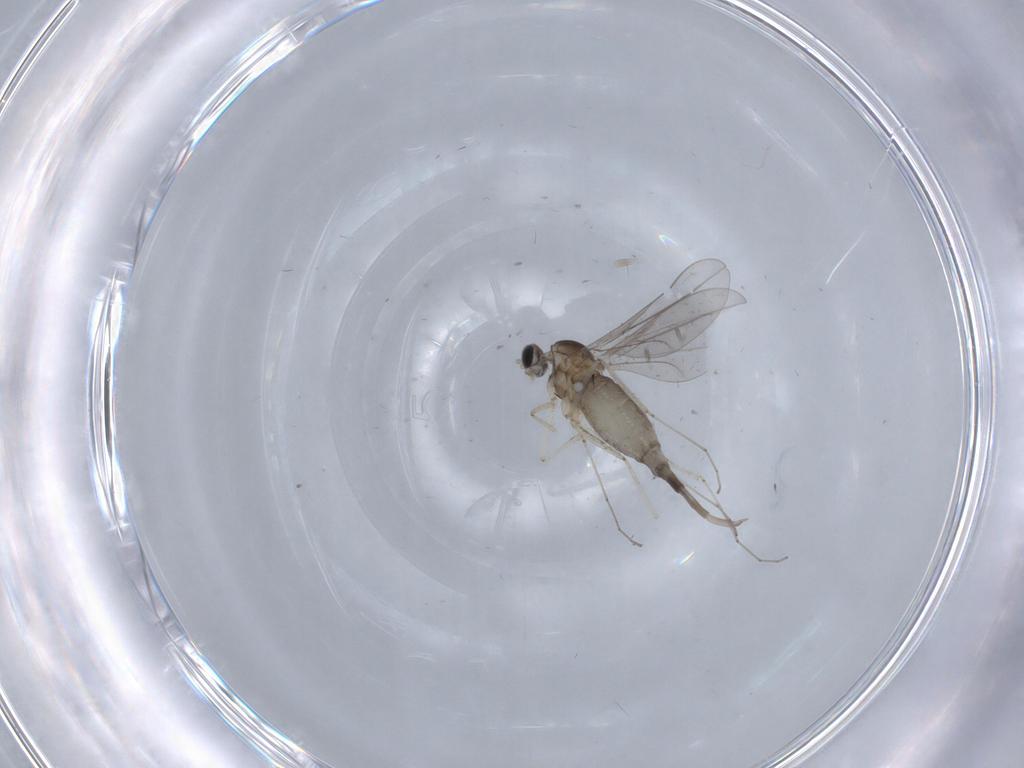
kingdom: Animalia
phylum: Arthropoda
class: Insecta
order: Diptera
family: Cecidomyiidae
